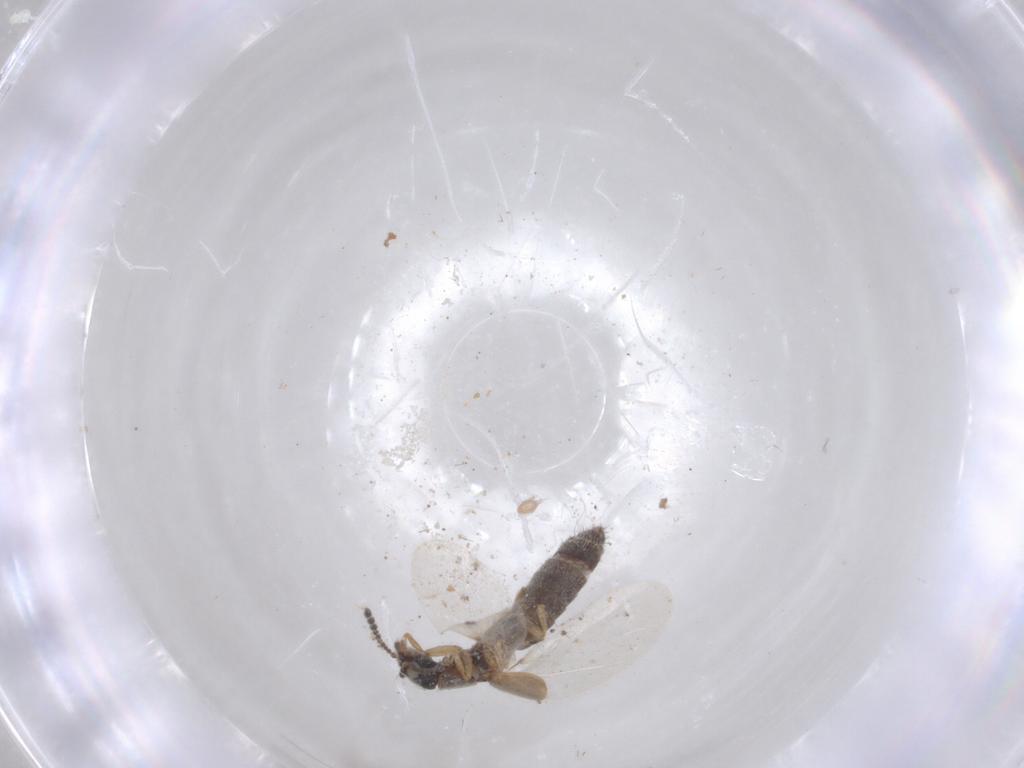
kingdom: Animalia
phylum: Arthropoda
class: Insecta
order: Coleoptera
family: Staphylinidae
